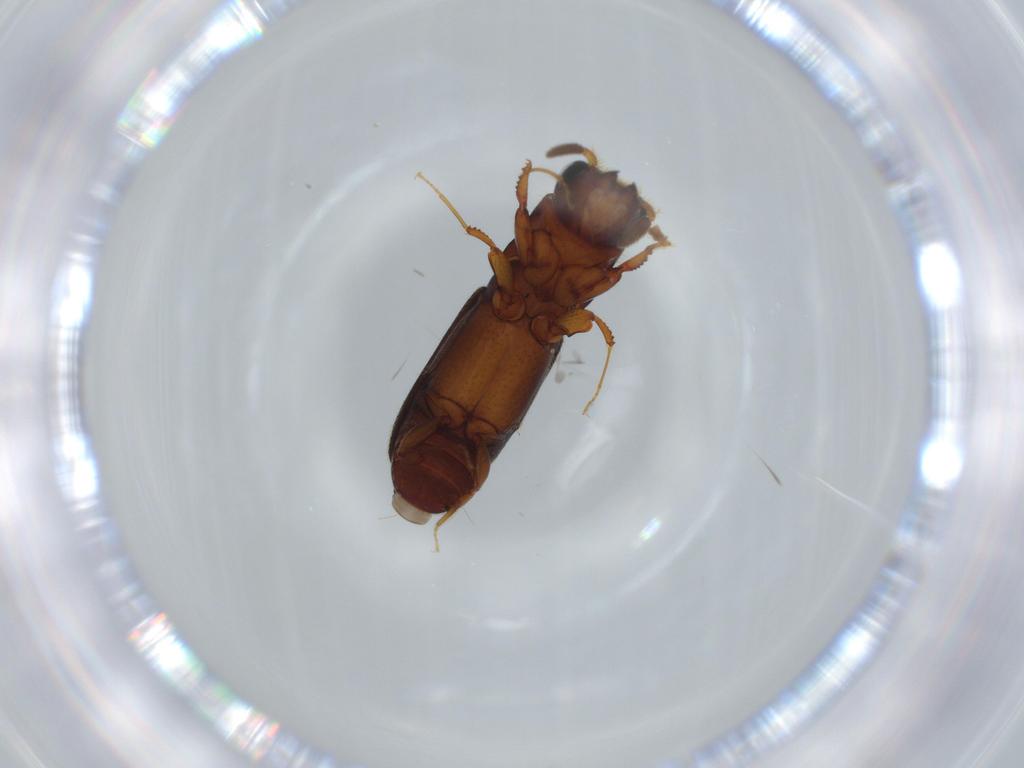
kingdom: Animalia
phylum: Arthropoda
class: Insecta
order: Coleoptera
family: Curculionidae
